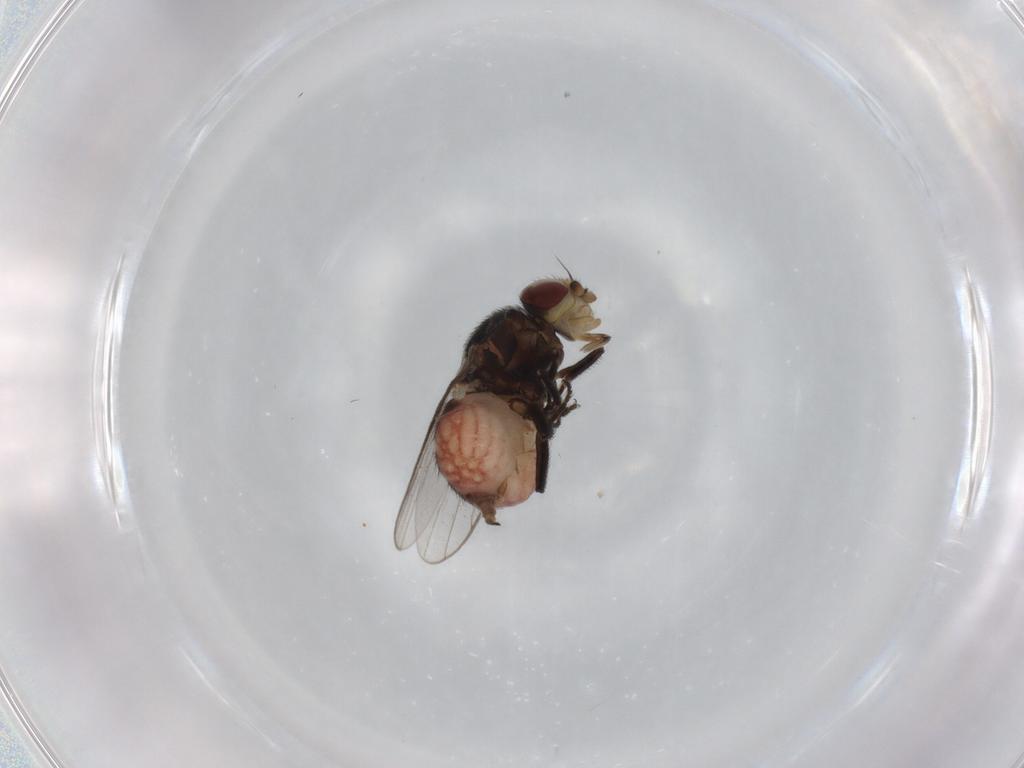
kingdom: Animalia
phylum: Arthropoda
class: Insecta
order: Diptera
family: Chloropidae
